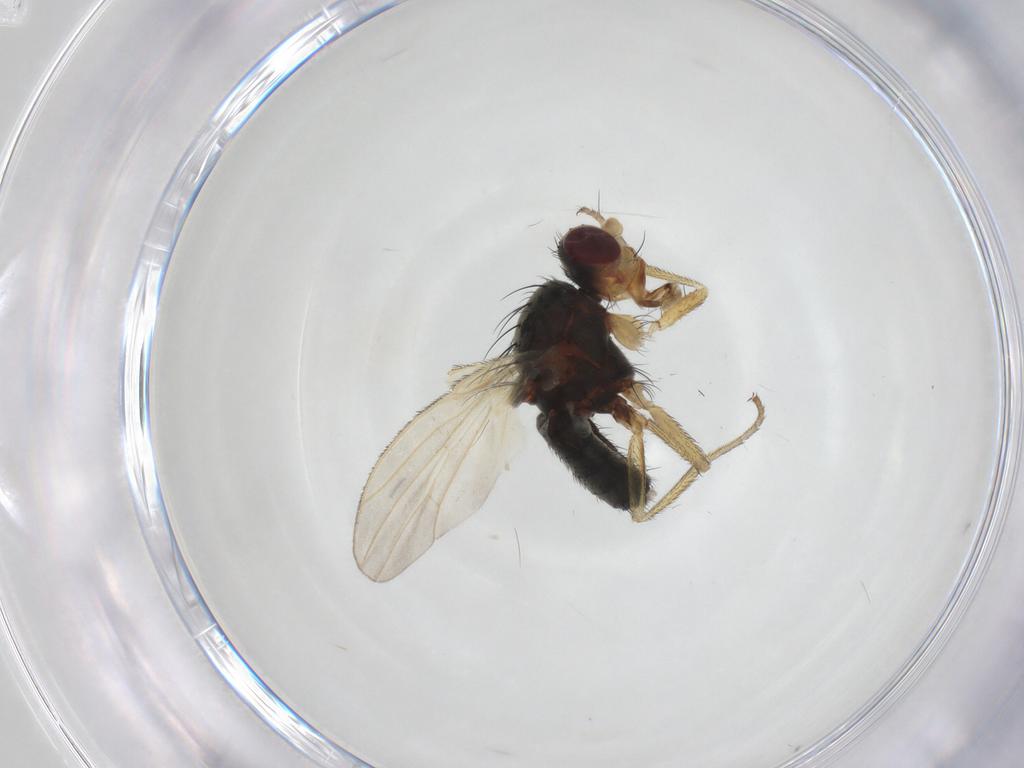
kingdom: Animalia
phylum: Arthropoda
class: Insecta
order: Diptera
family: Heleomyzidae
